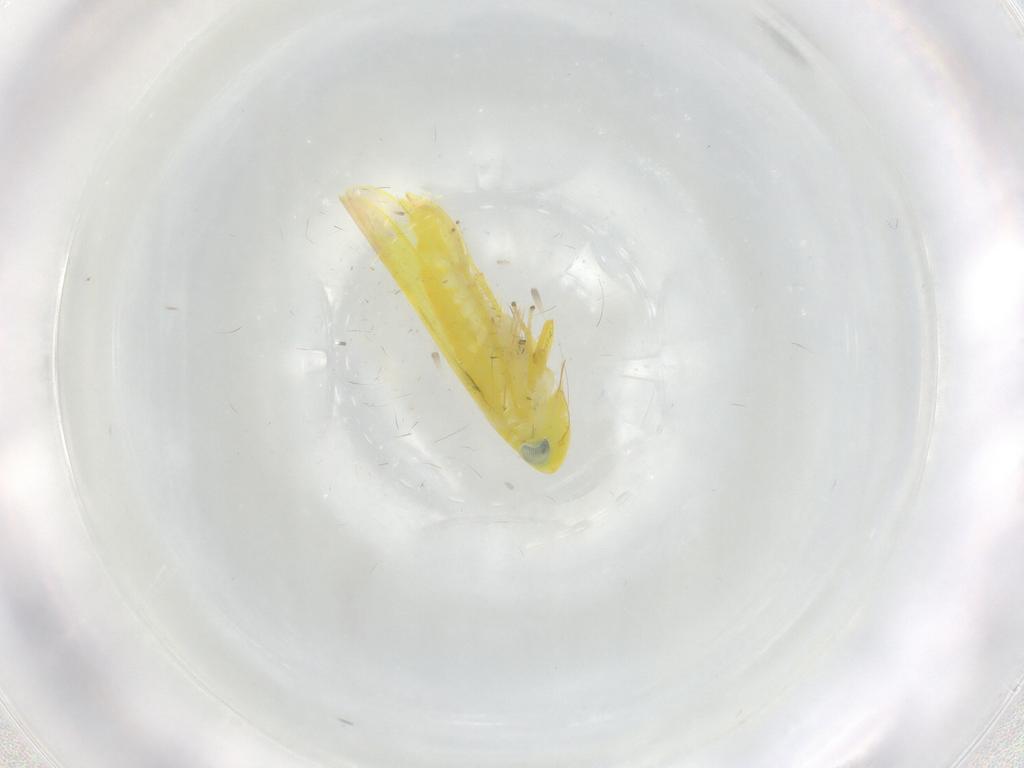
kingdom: Animalia
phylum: Arthropoda
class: Insecta
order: Hemiptera
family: Cicadellidae
